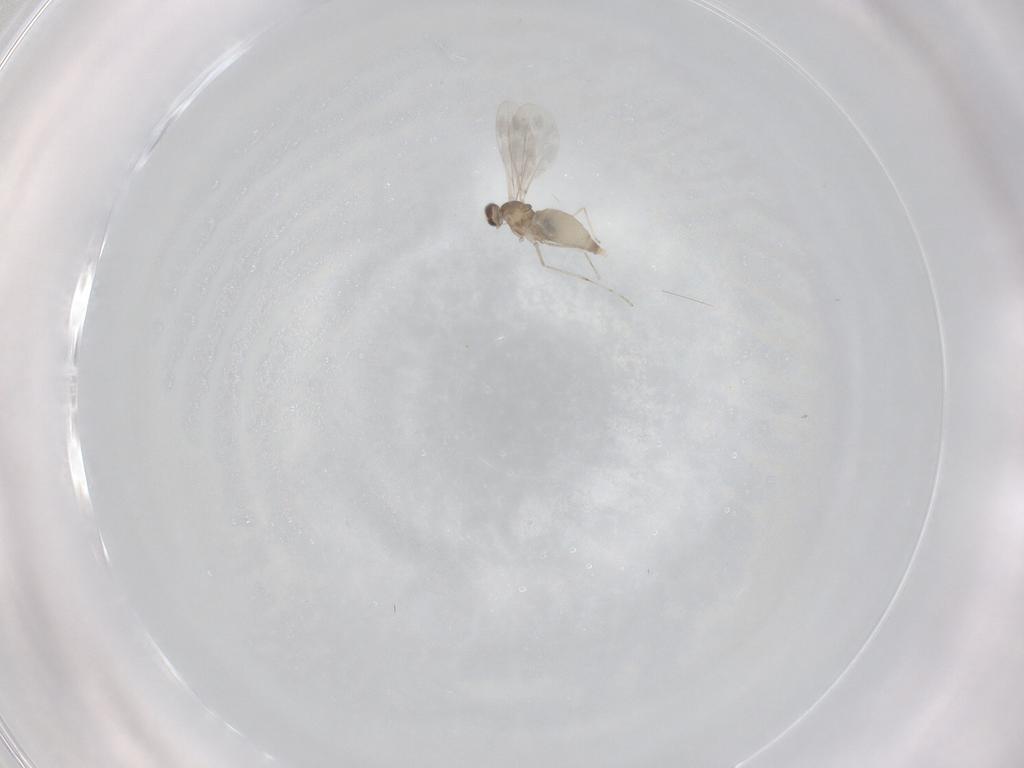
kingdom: Animalia
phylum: Arthropoda
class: Insecta
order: Diptera
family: Cecidomyiidae
